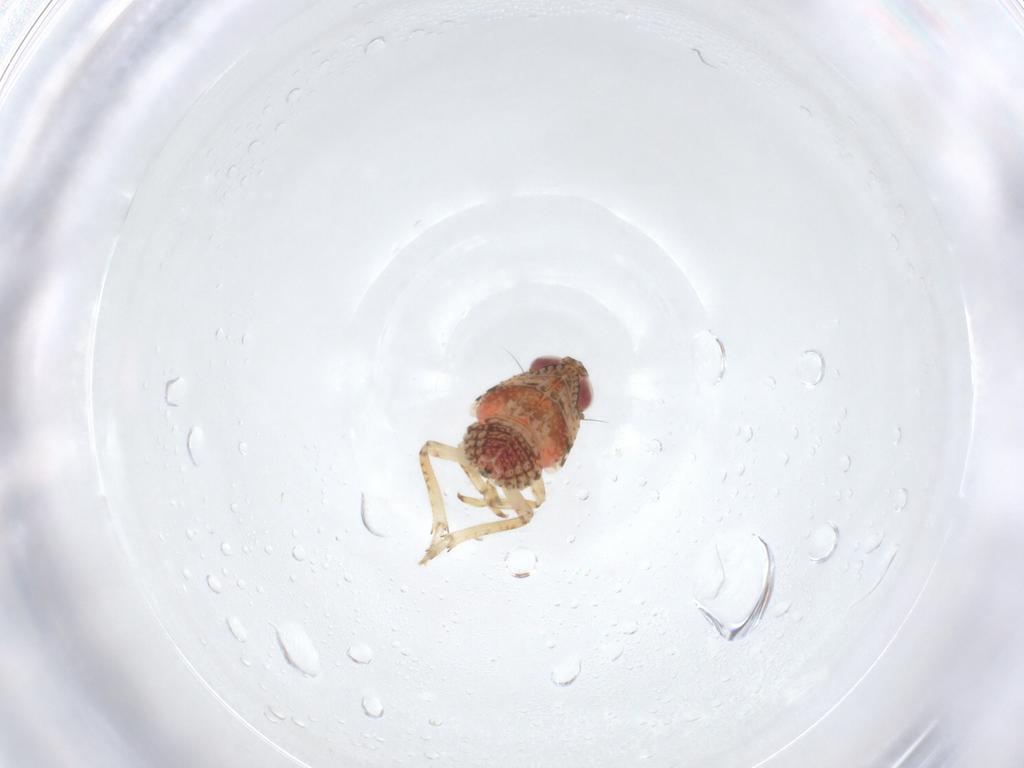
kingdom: Animalia
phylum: Arthropoda
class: Insecta
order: Hemiptera
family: Issidae
